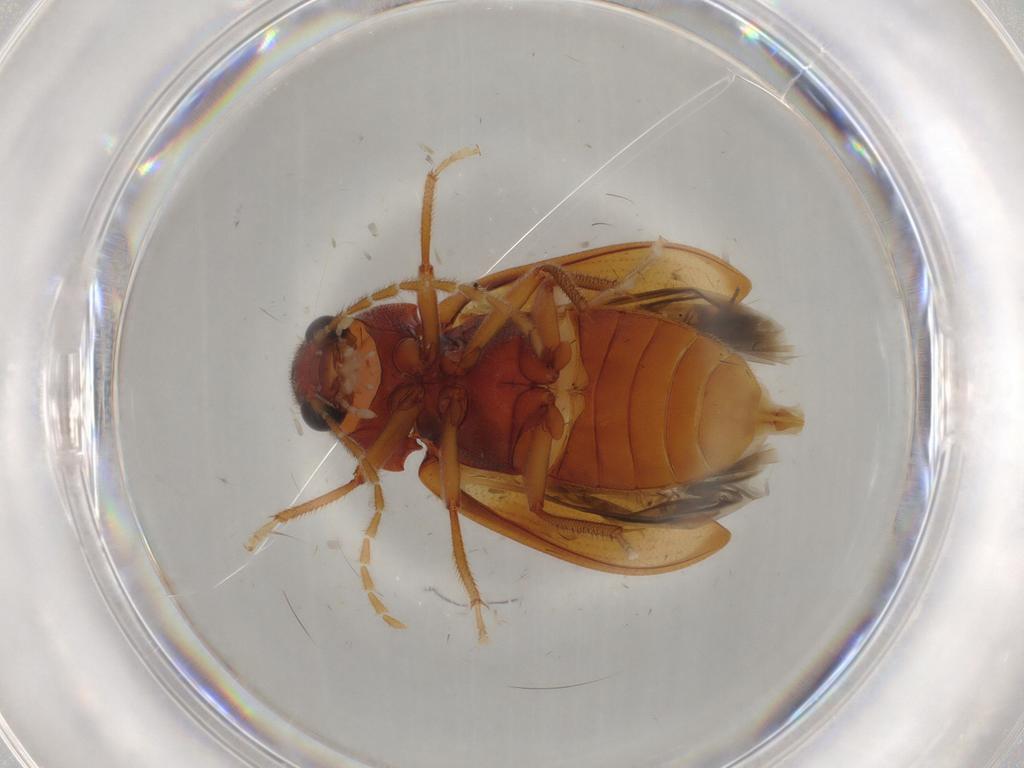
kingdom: Animalia
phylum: Arthropoda
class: Insecta
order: Coleoptera
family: Ptilodactylidae
